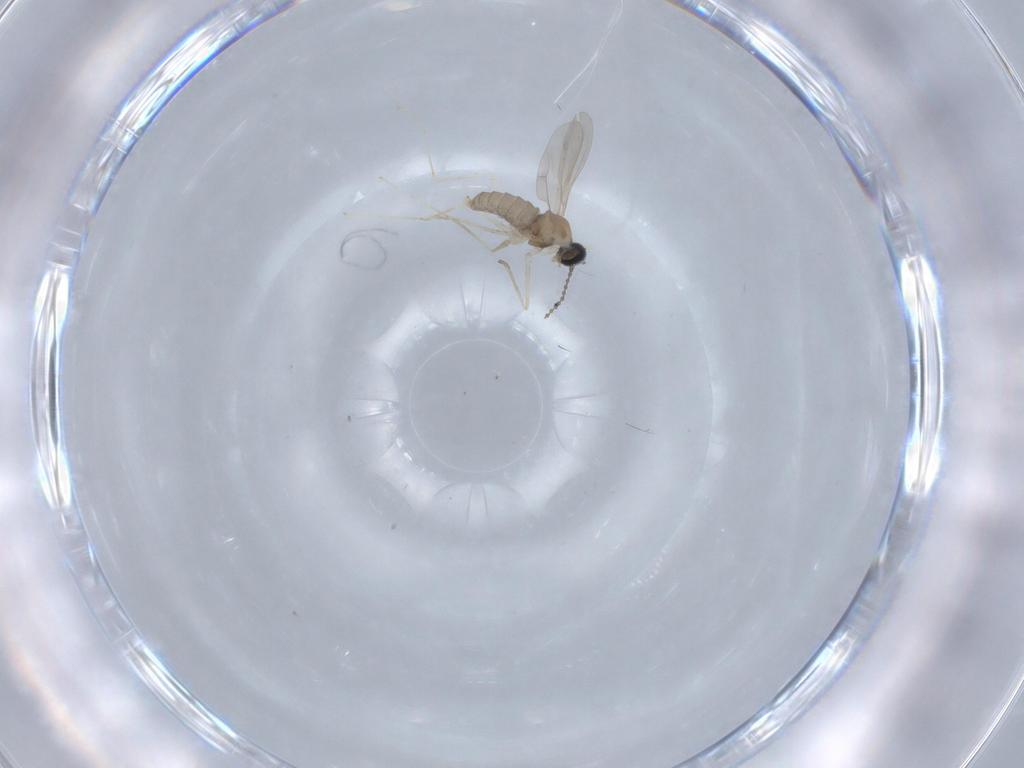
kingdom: Animalia
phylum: Arthropoda
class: Insecta
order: Diptera
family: Cecidomyiidae
